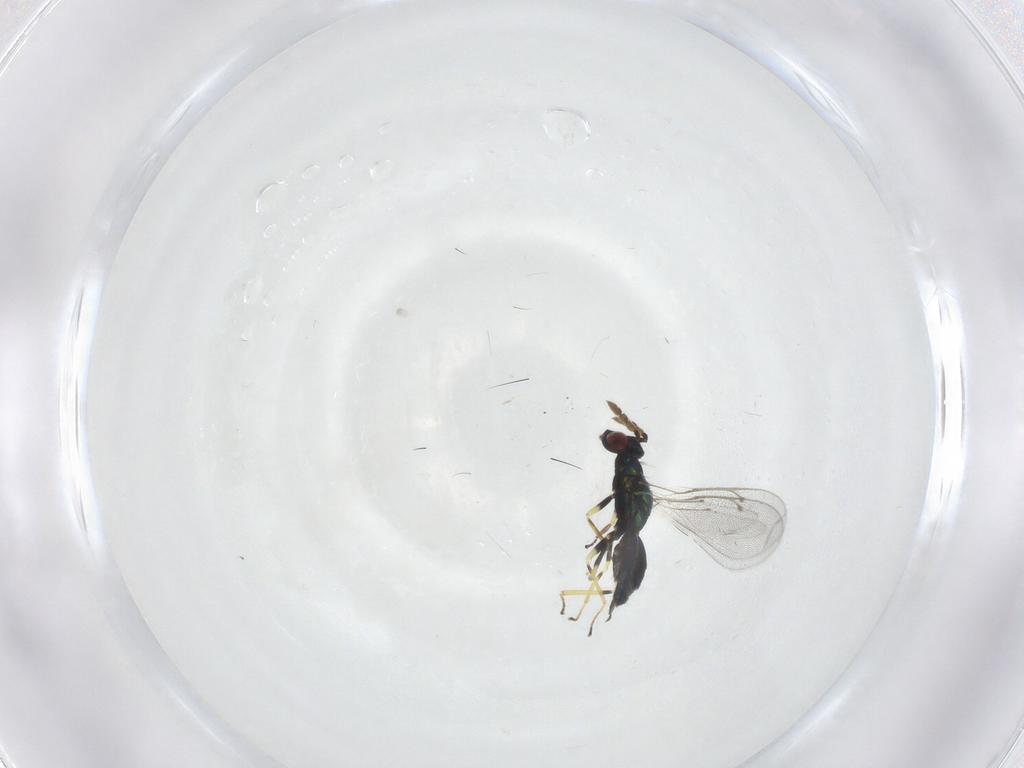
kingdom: Animalia
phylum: Arthropoda
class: Insecta
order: Hymenoptera
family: Eulophidae
